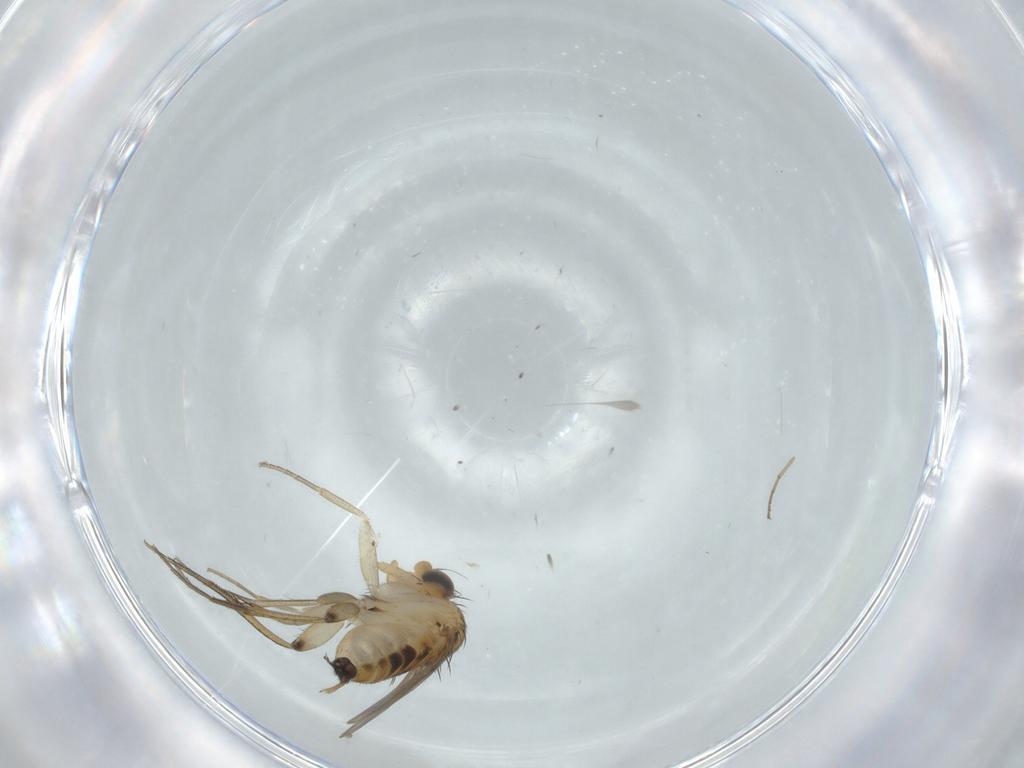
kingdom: Animalia
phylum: Arthropoda
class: Insecta
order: Diptera
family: Phoridae
